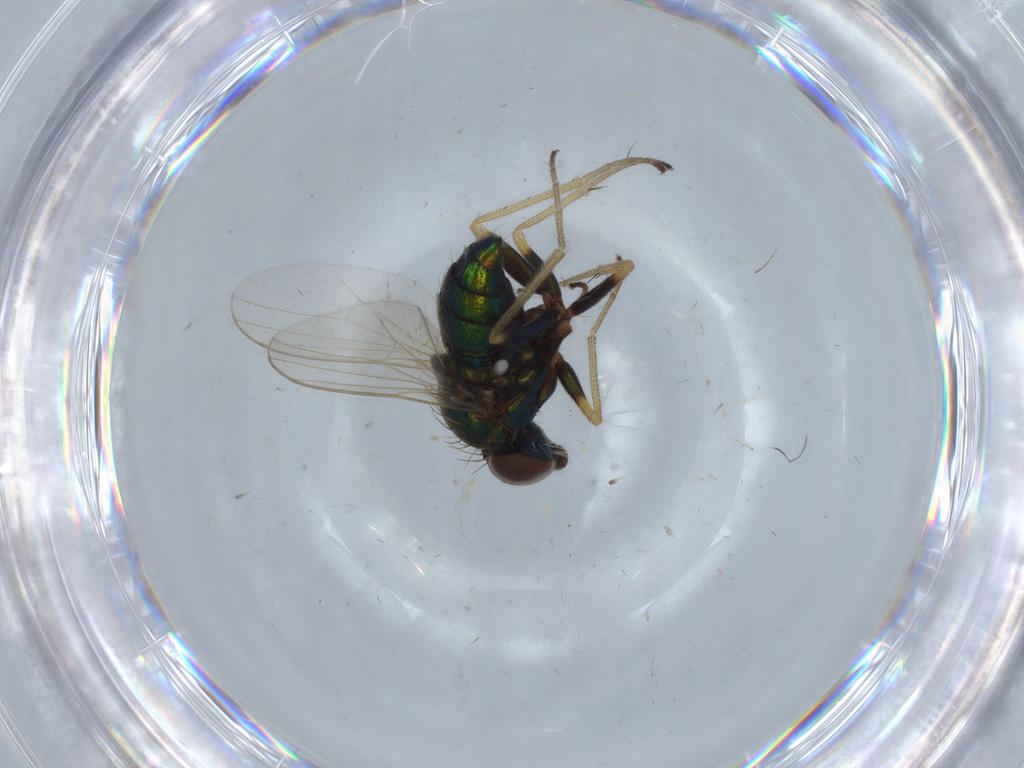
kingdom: Animalia
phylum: Arthropoda
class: Insecta
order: Diptera
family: Dolichopodidae
